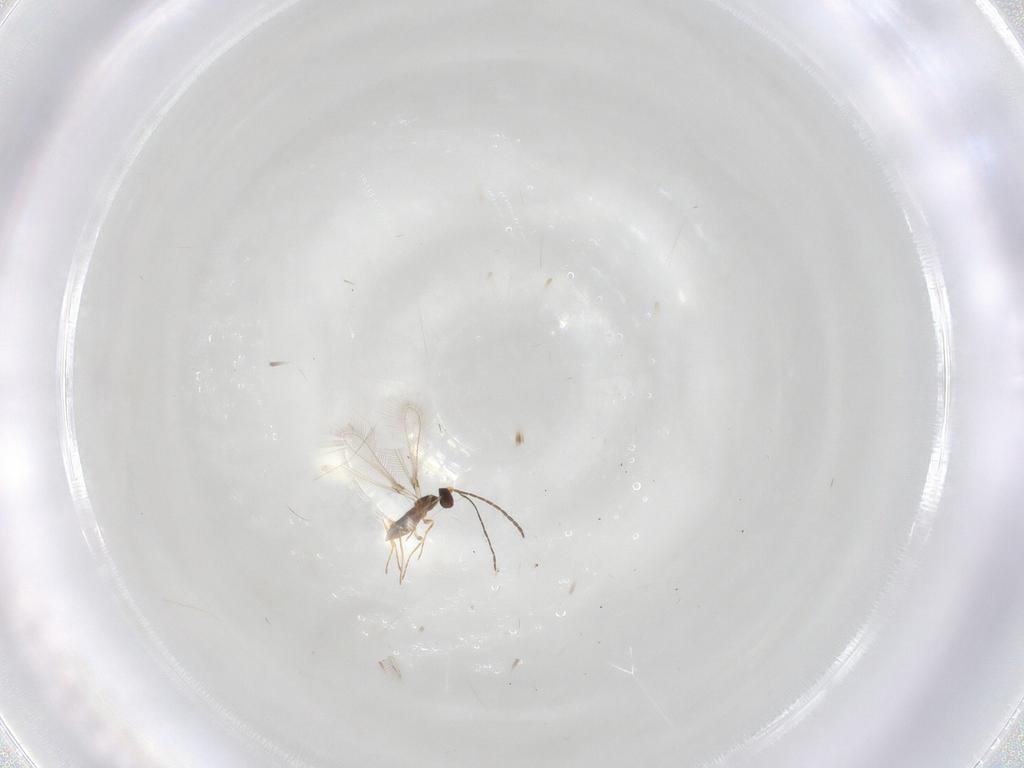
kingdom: Animalia
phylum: Arthropoda
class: Insecta
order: Hymenoptera
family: Mymaridae
